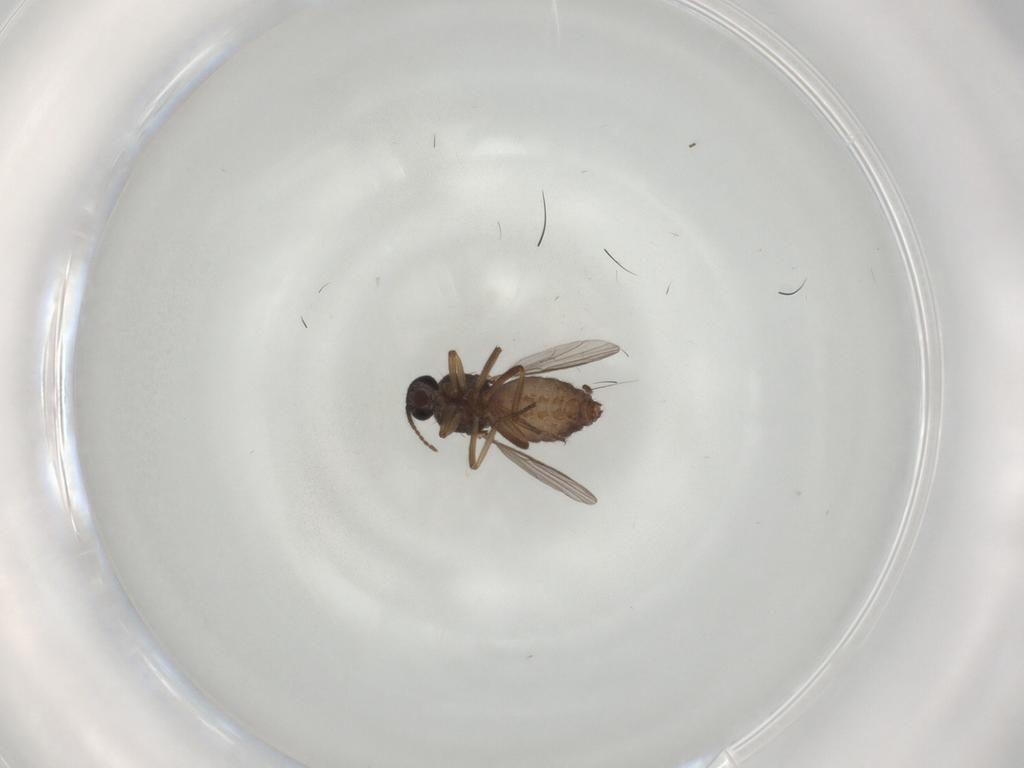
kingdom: Animalia
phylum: Arthropoda
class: Insecta
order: Diptera
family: Ceratopogonidae
